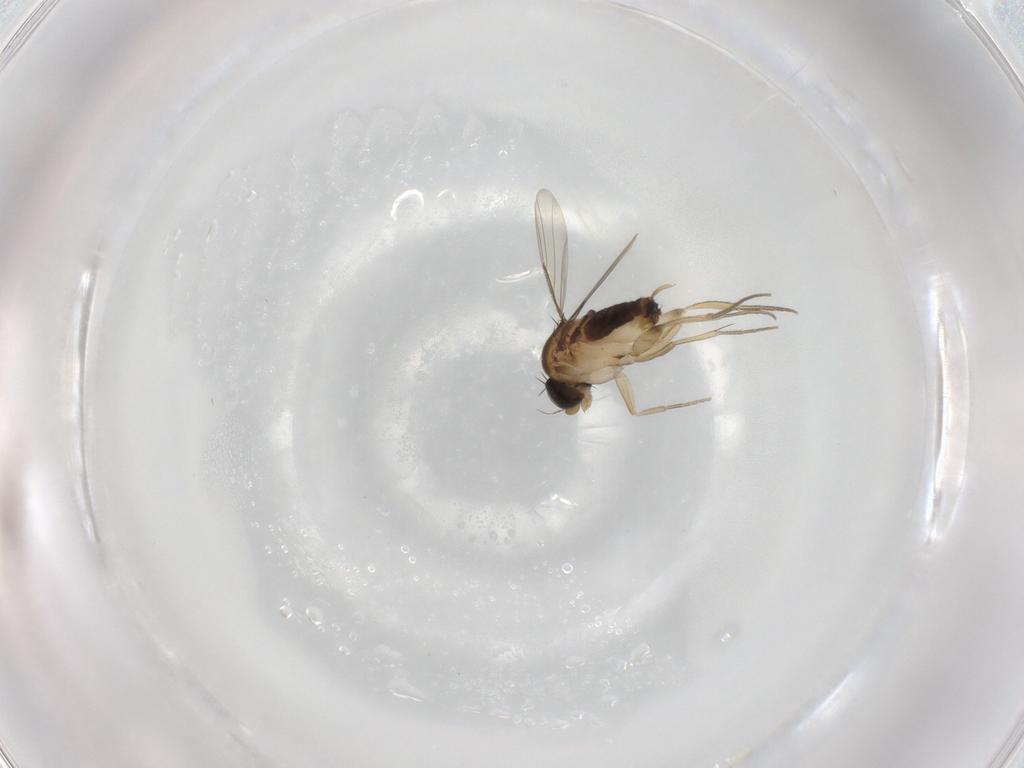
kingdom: Animalia
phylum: Arthropoda
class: Insecta
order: Diptera
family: Phoridae
